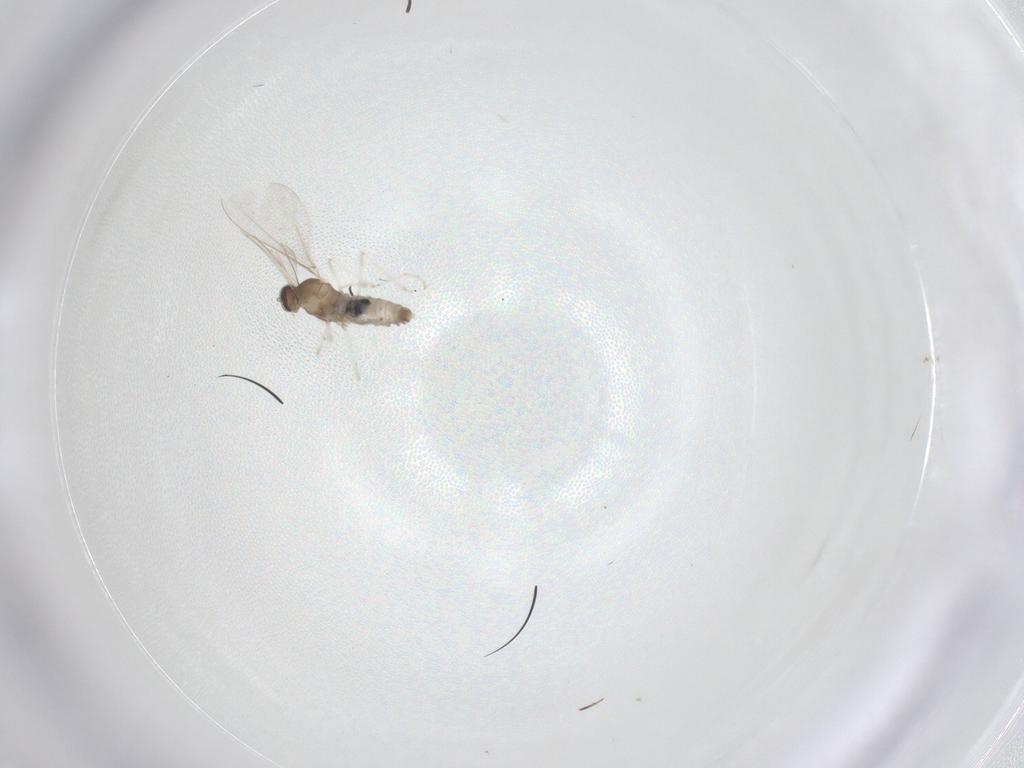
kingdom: Animalia
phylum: Arthropoda
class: Insecta
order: Diptera
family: Cecidomyiidae
